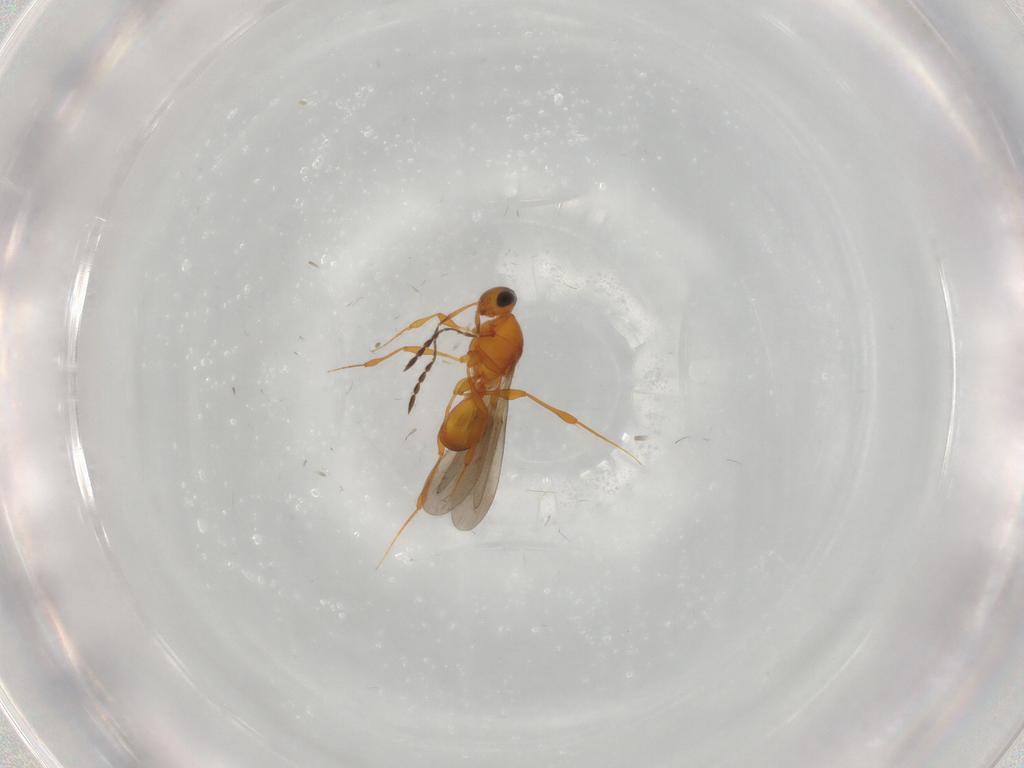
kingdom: Animalia
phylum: Arthropoda
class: Insecta
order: Hymenoptera
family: Platygastridae
